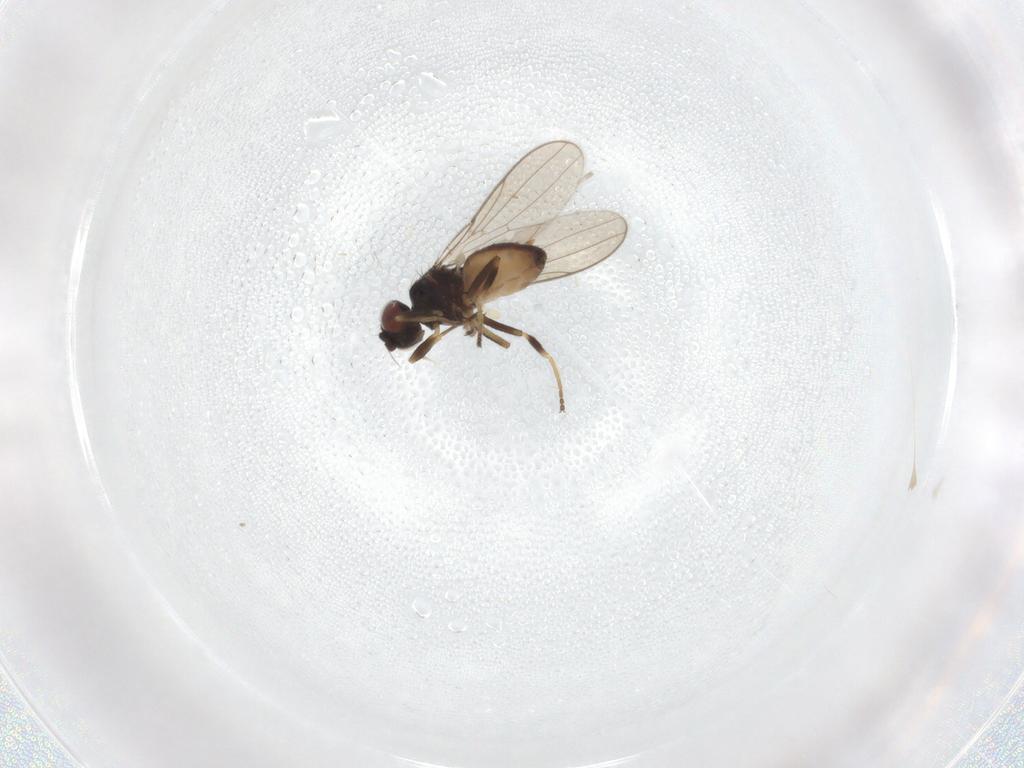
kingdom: Animalia
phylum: Arthropoda
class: Insecta
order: Diptera
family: Chloropidae
